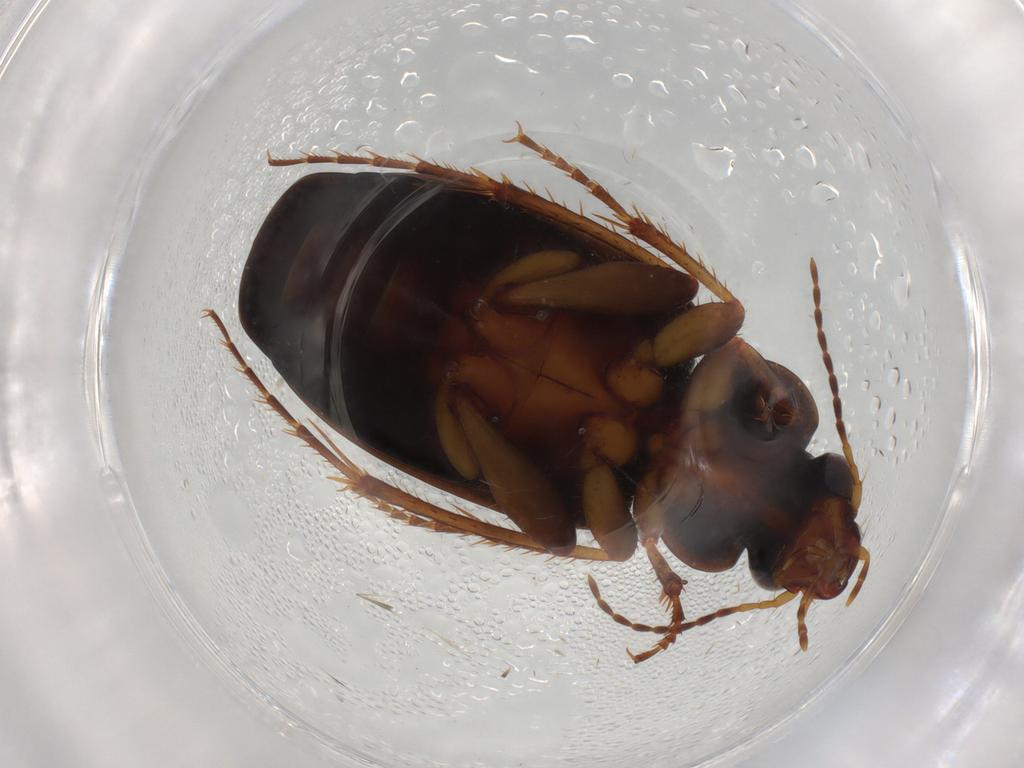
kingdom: Animalia
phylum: Arthropoda
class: Insecta
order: Coleoptera
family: Carabidae
